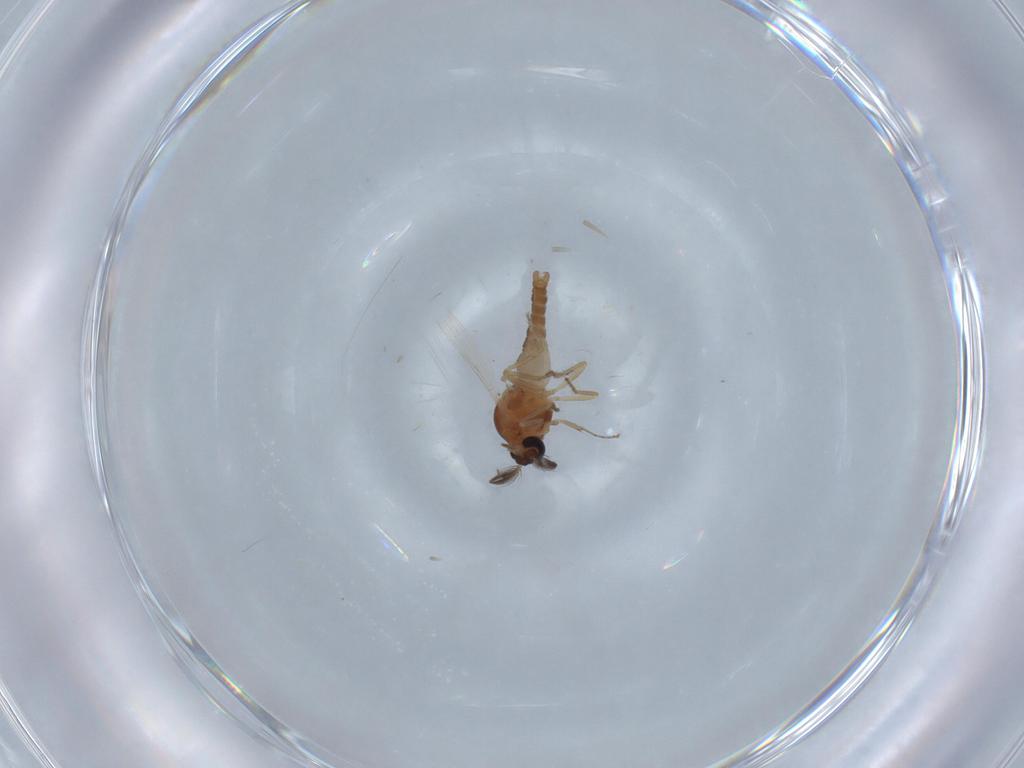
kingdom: Animalia
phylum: Arthropoda
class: Insecta
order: Diptera
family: Ceratopogonidae
